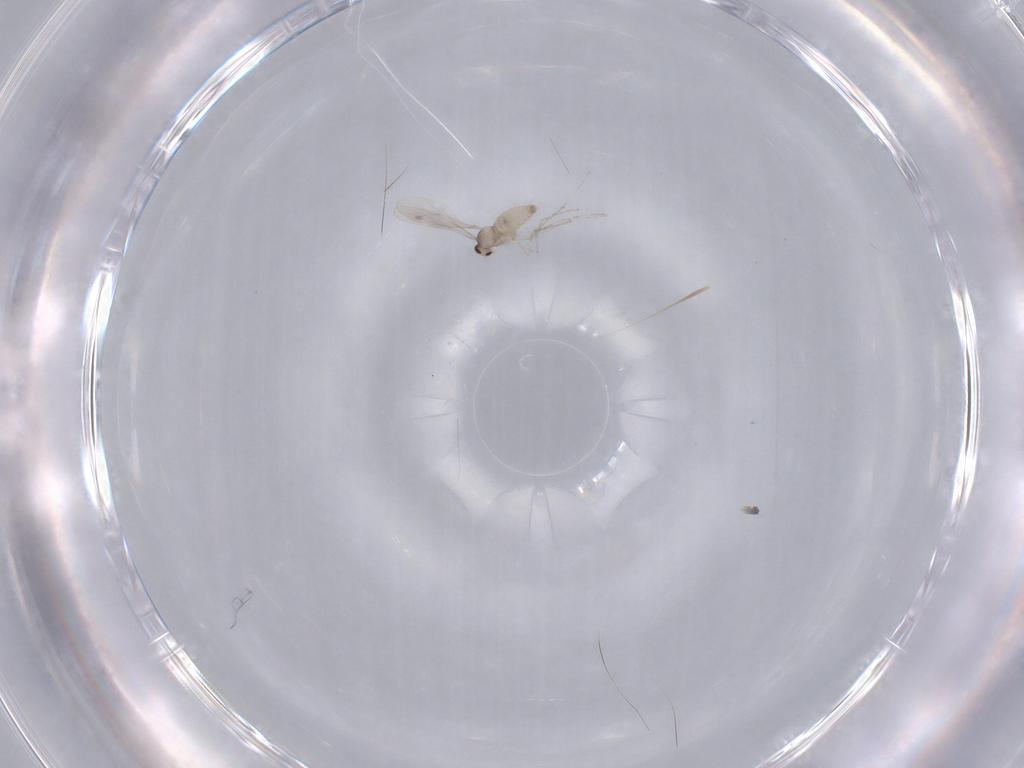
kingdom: Animalia
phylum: Arthropoda
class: Insecta
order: Diptera
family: Cecidomyiidae
